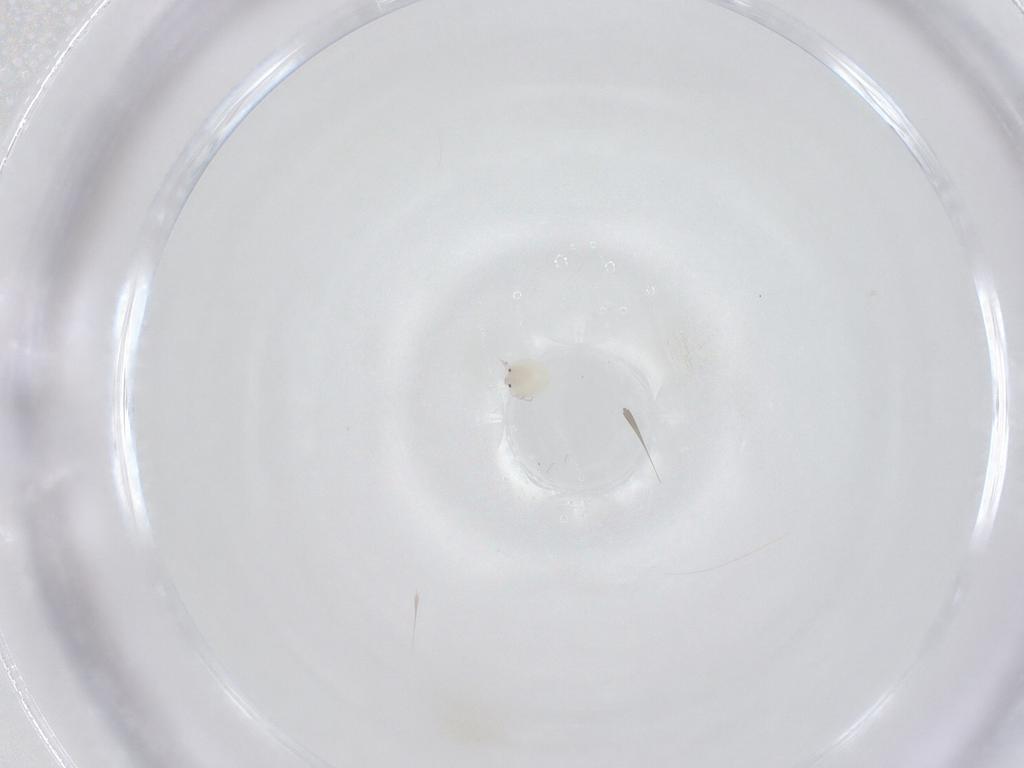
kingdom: Animalia
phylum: Arthropoda
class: Arachnida
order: Trombidiformes
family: Arrenuridae
